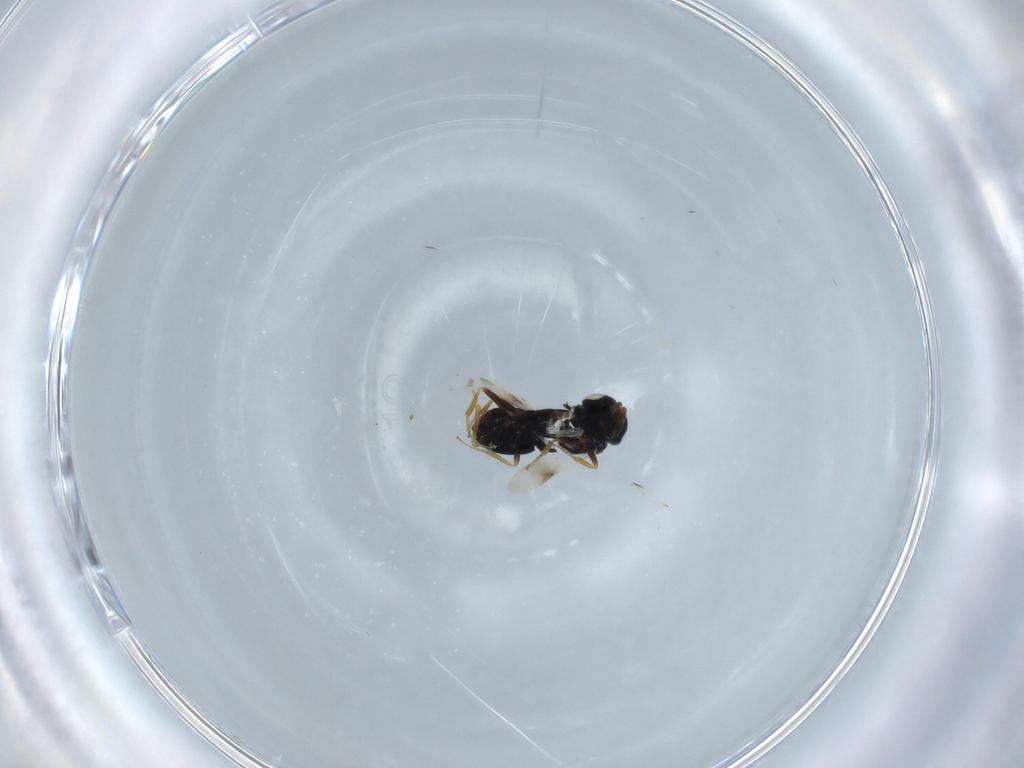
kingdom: Animalia
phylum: Arthropoda
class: Insecta
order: Hymenoptera
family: Scelionidae
